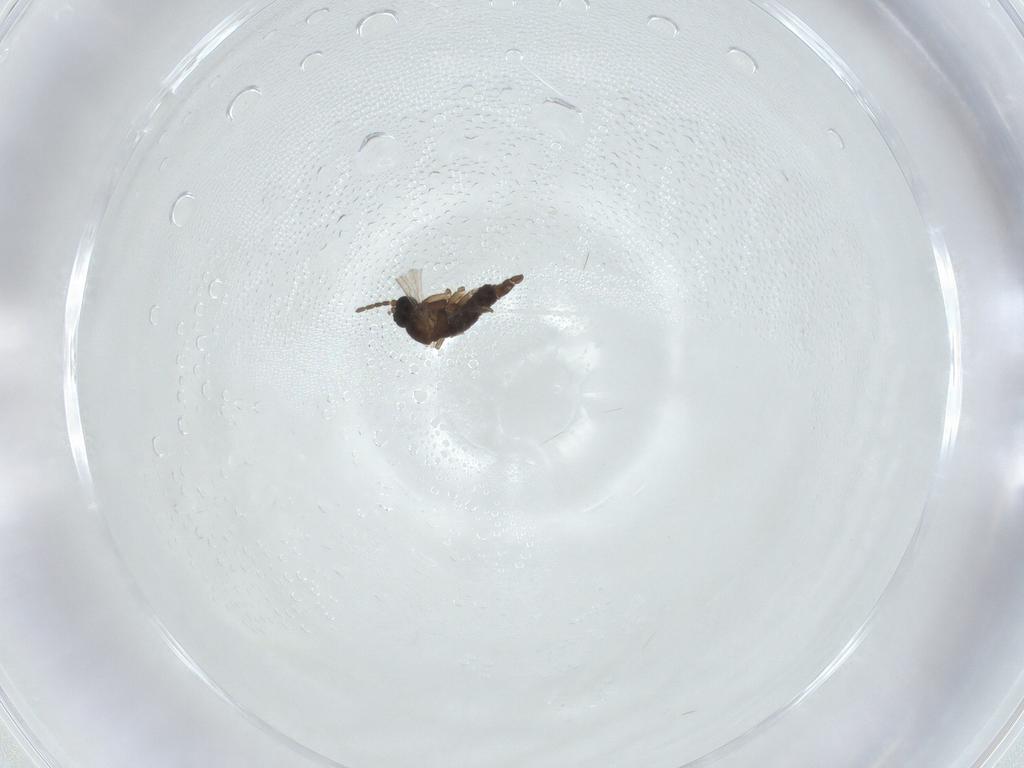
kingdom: Animalia
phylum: Arthropoda
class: Insecta
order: Diptera
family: Sciaridae
